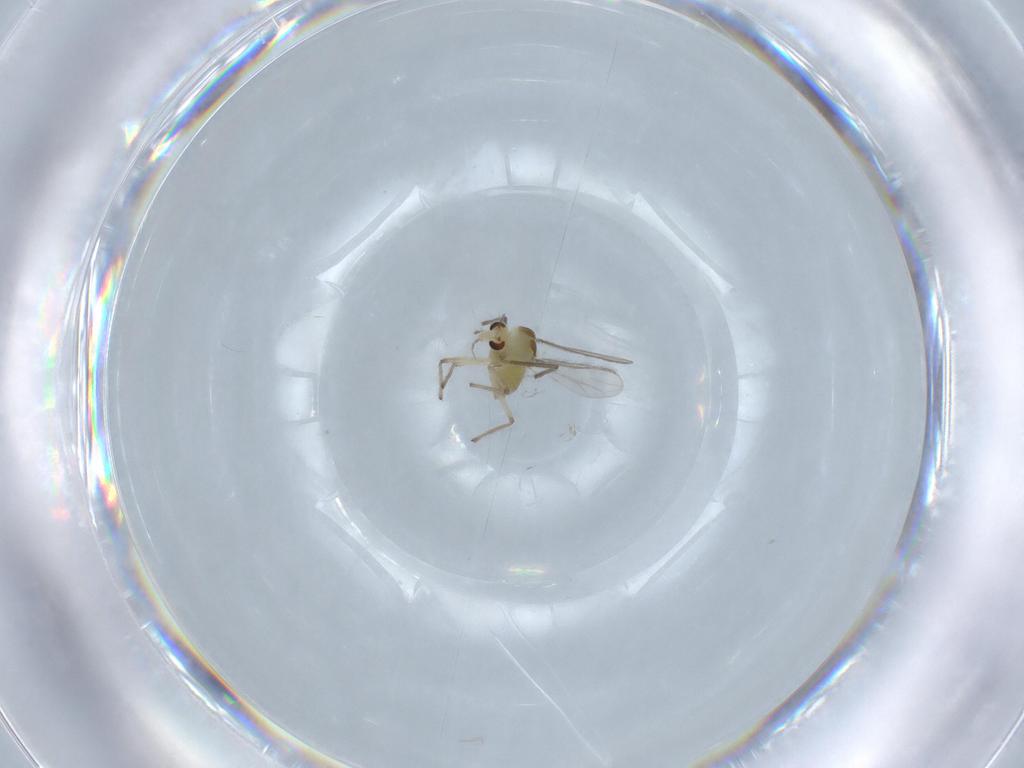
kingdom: Animalia
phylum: Arthropoda
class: Insecta
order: Diptera
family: Chironomidae
